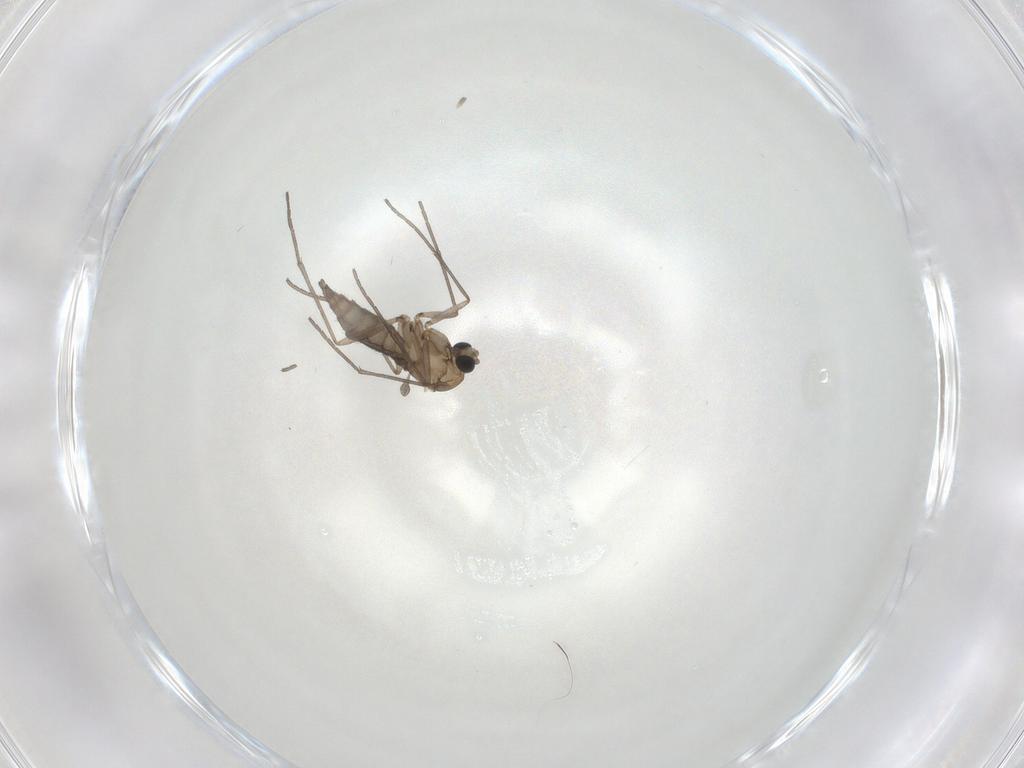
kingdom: Animalia
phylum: Arthropoda
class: Insecta
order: Diptera
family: Sciaridae
